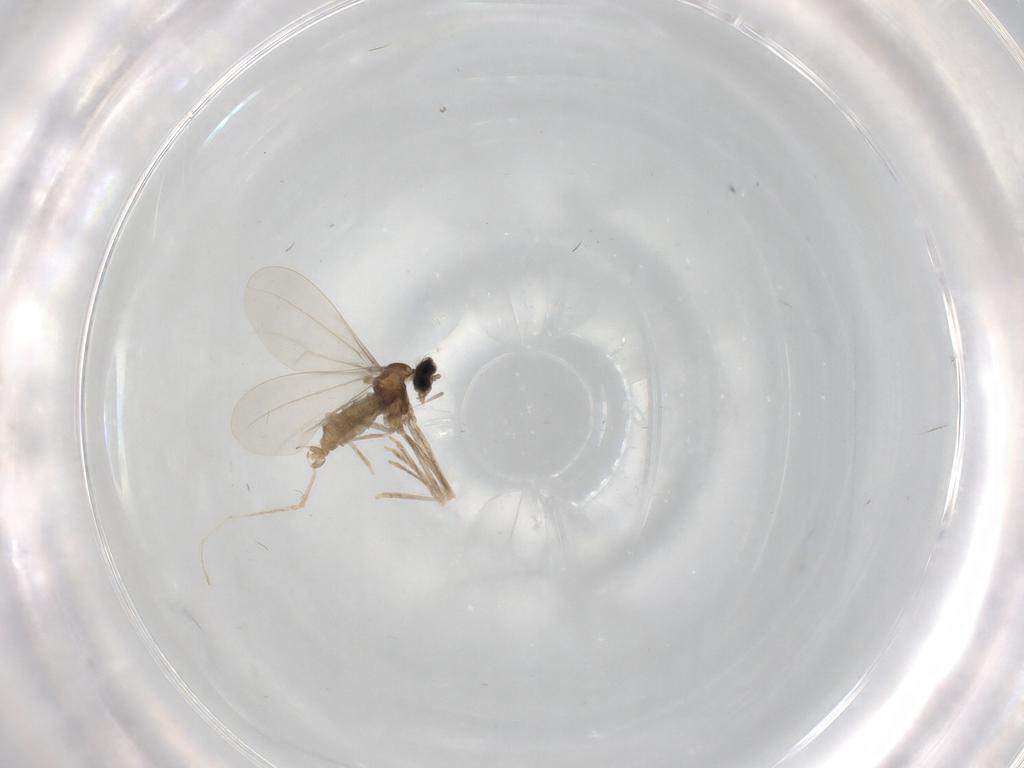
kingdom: Animalia
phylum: Arthropoda
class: Insecta
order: Diptera
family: Cecidomyiidae
